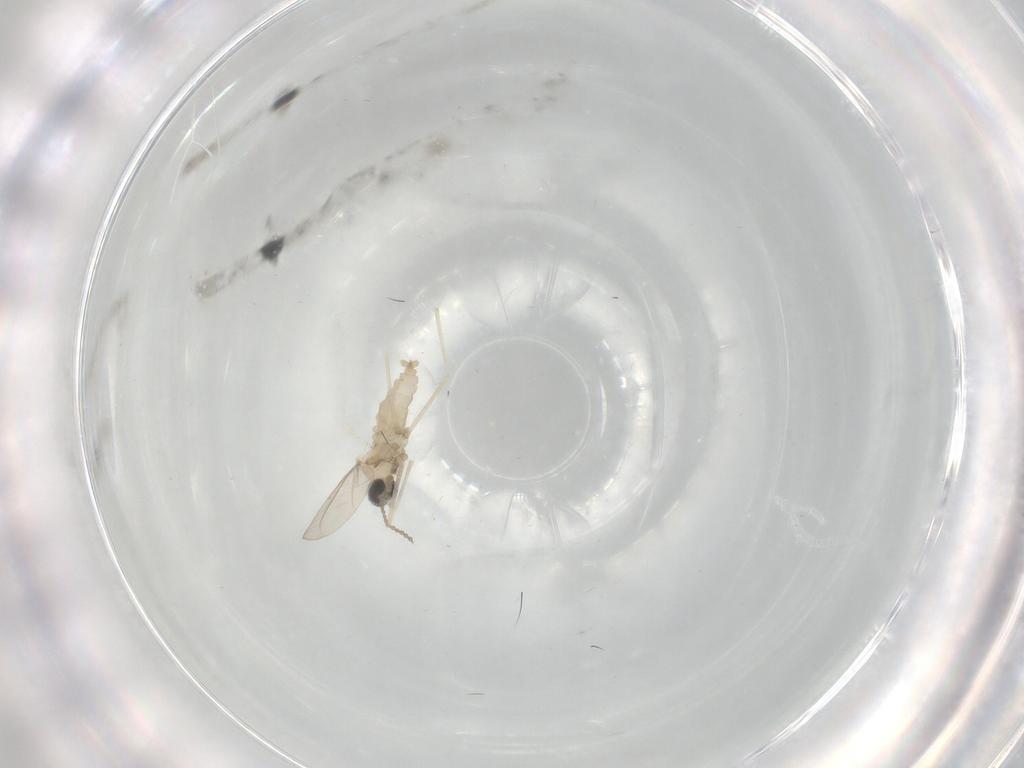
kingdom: Animalia
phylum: Arthropoda
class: Insecta
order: Diptera
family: Cecidomyiidae
